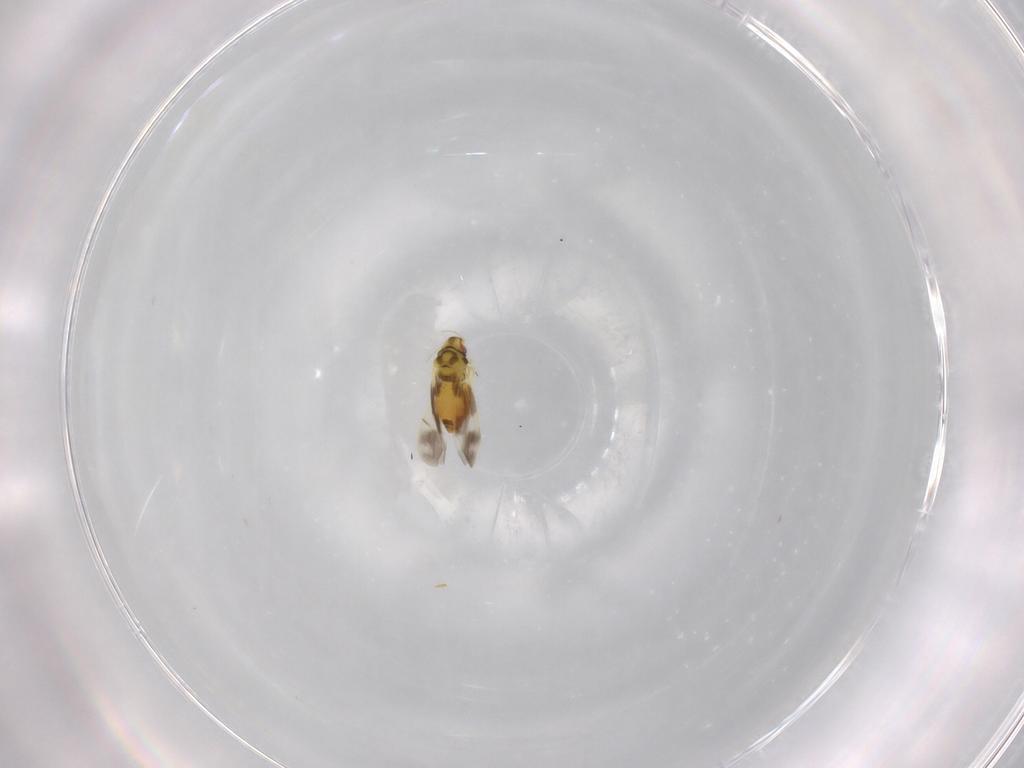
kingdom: Animalia
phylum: Arthropoda
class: Insecta
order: Hemiptera
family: Aleyrodidae
